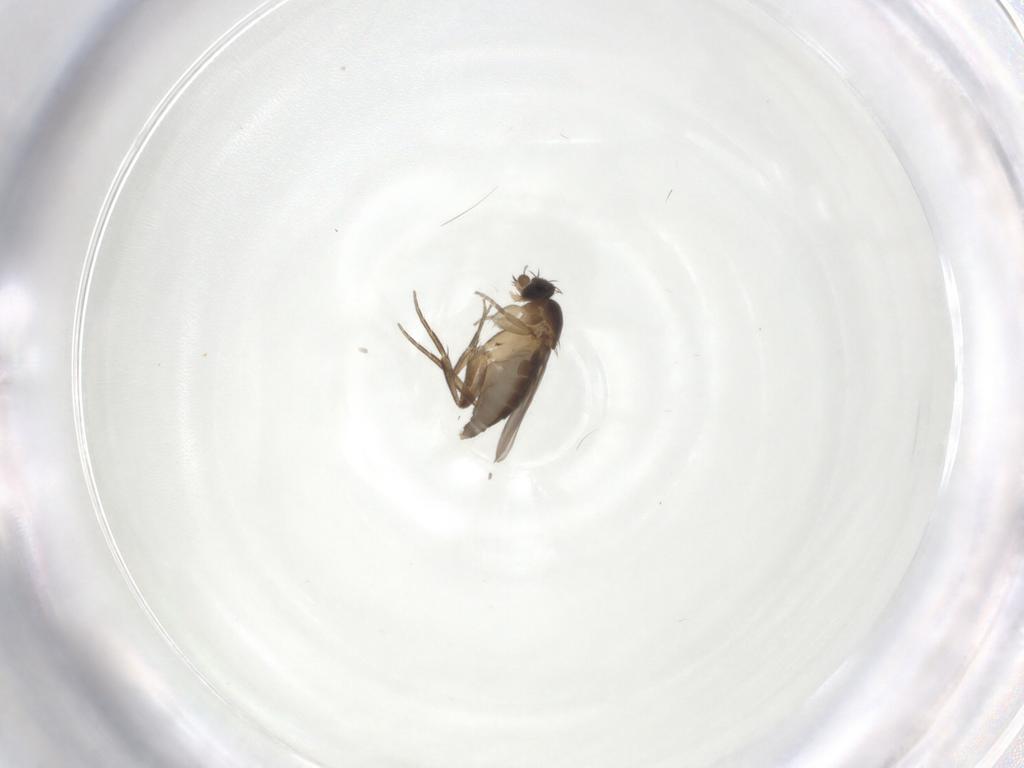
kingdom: Animalia
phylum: Arthropoda
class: Insecta
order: Diptera
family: Phoridae
